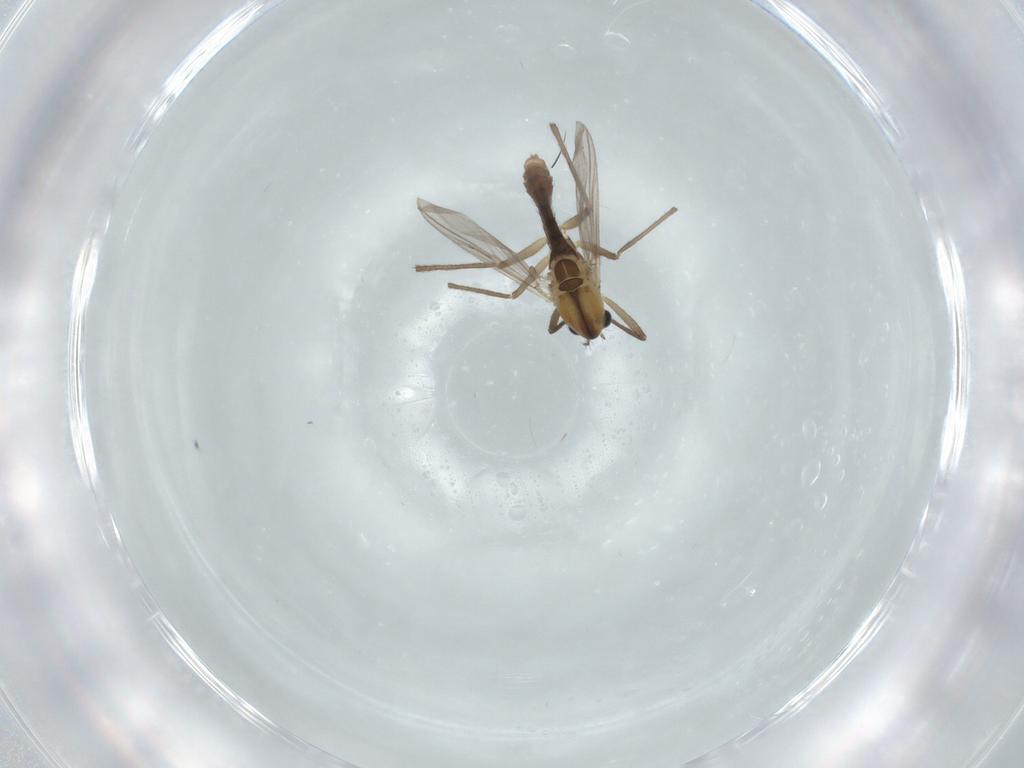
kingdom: Animalia
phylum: Arthropoda
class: Insecta
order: Diptera
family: Chironomidae
